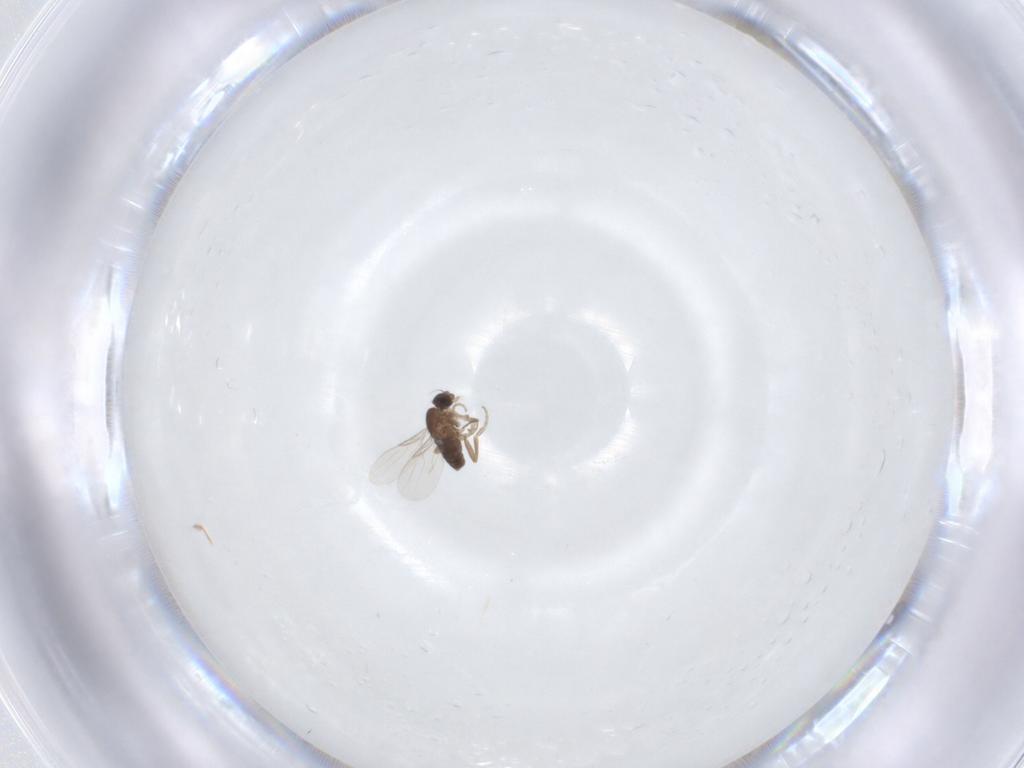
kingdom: Animalia
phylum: Arthropoda
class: Insecta
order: Diptera
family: Phoridae
